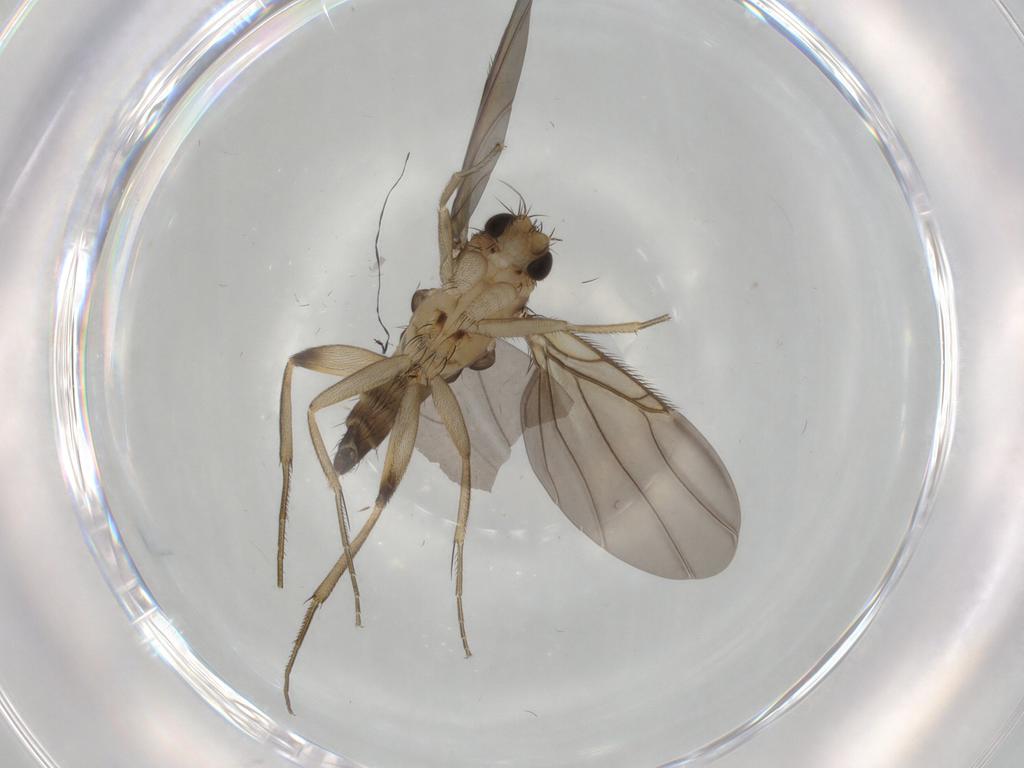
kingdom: Animalia
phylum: Arthropoda
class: Insecta
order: Diptera
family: Phoridae
